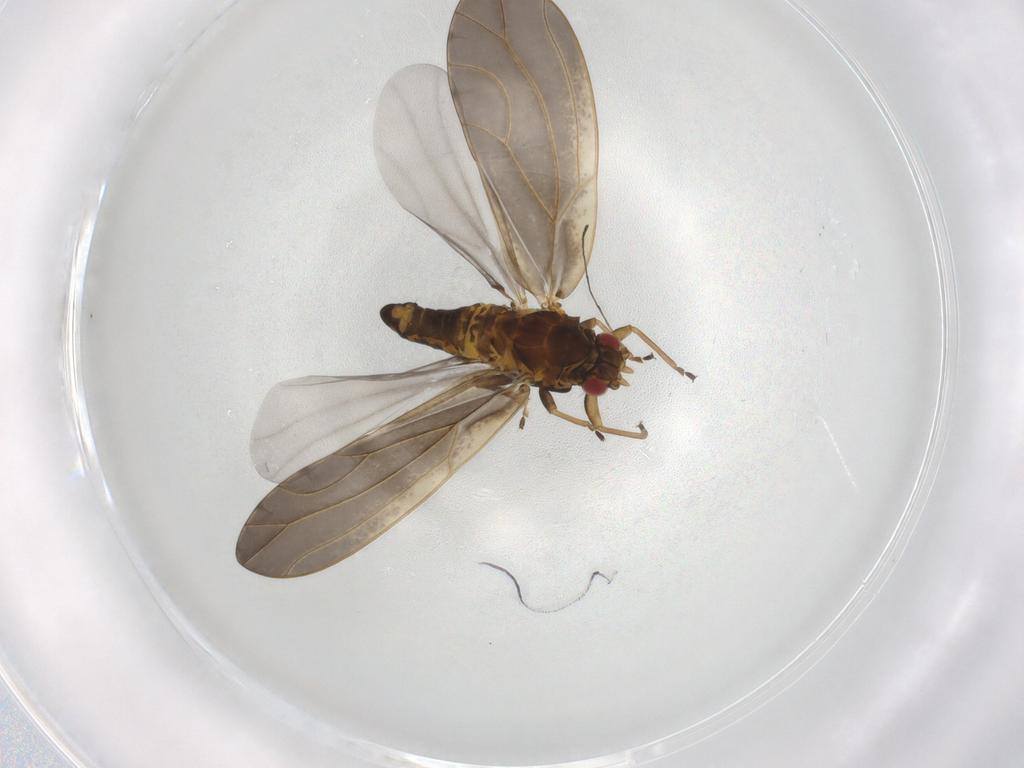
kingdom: Animalia
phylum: Arthropoda
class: Insecta
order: Hemiptera
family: Triozidae
